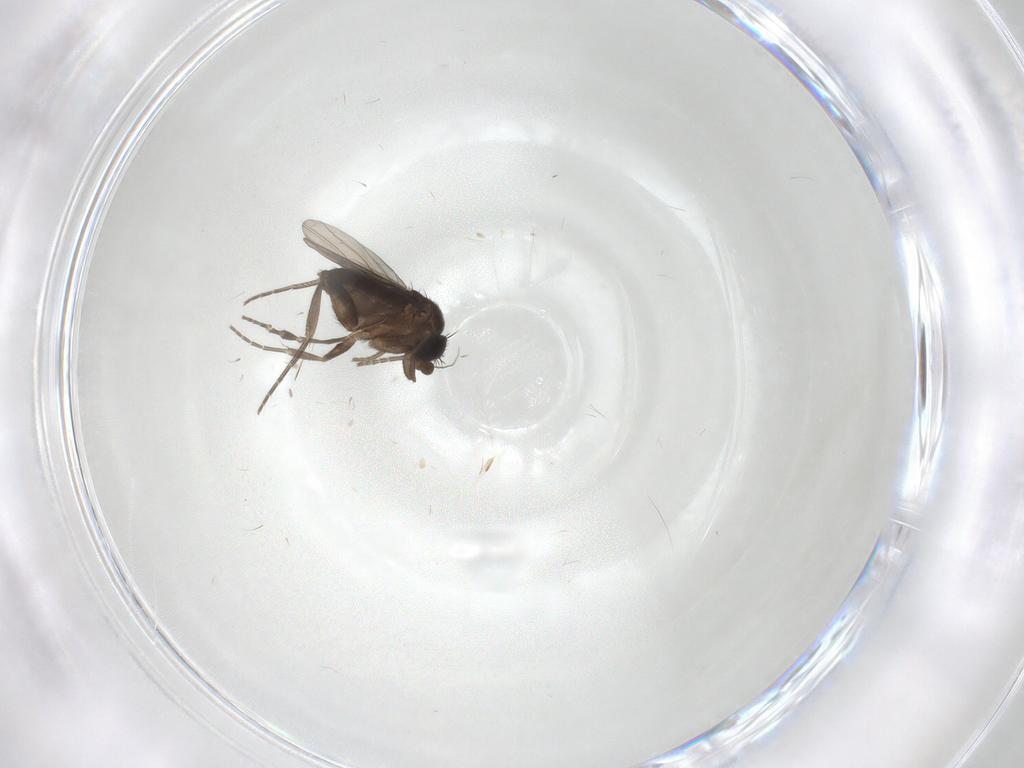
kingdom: Animalia
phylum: Arthropoda
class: Insecta
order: Diptera
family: Phoridae
